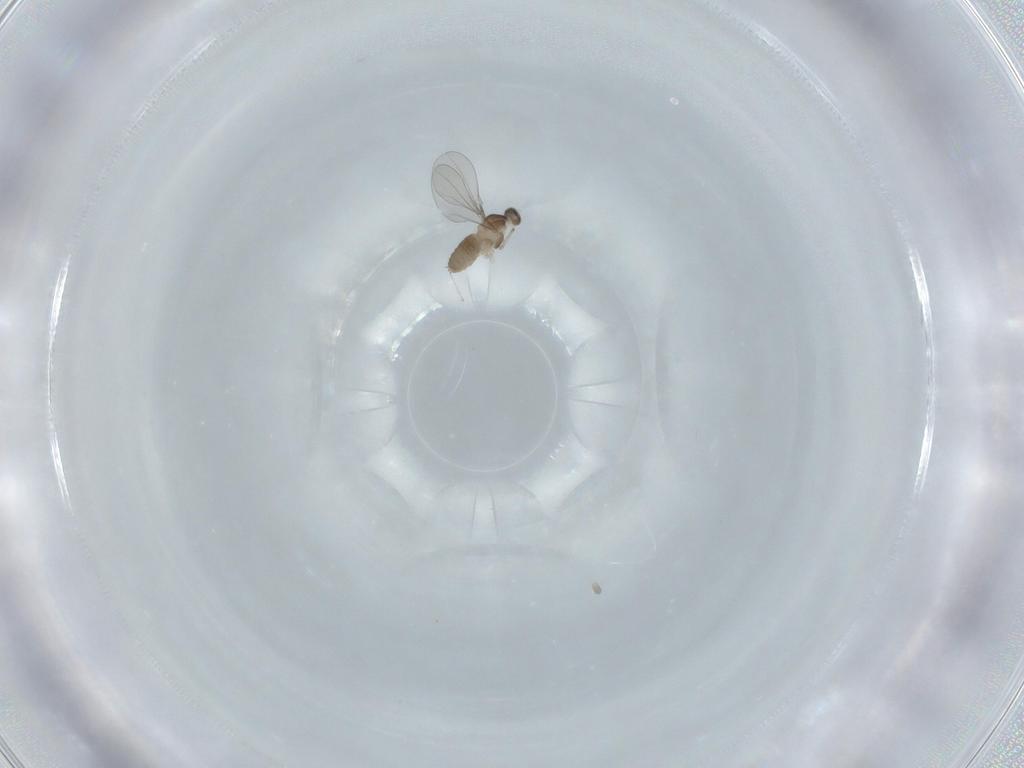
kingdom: Animalia
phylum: Arthropoda
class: Insecta
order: Diptera
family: Cecidomyiidae
